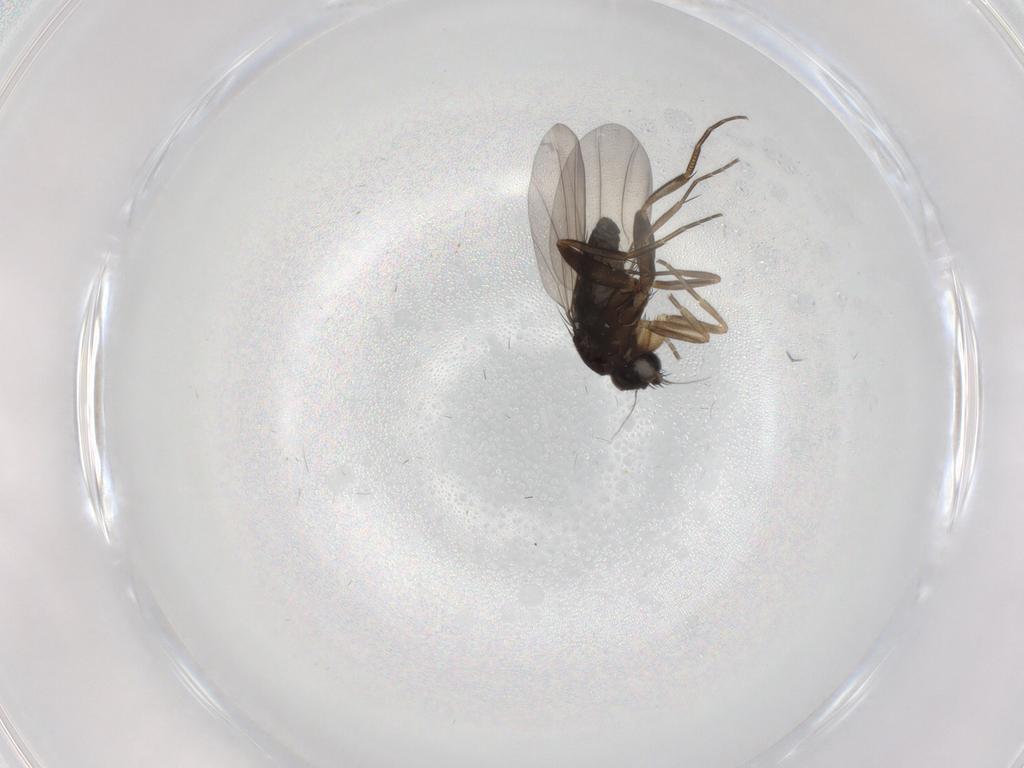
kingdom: Animalia
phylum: Arthropoda
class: Insecta
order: Diptera
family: Phoridae
